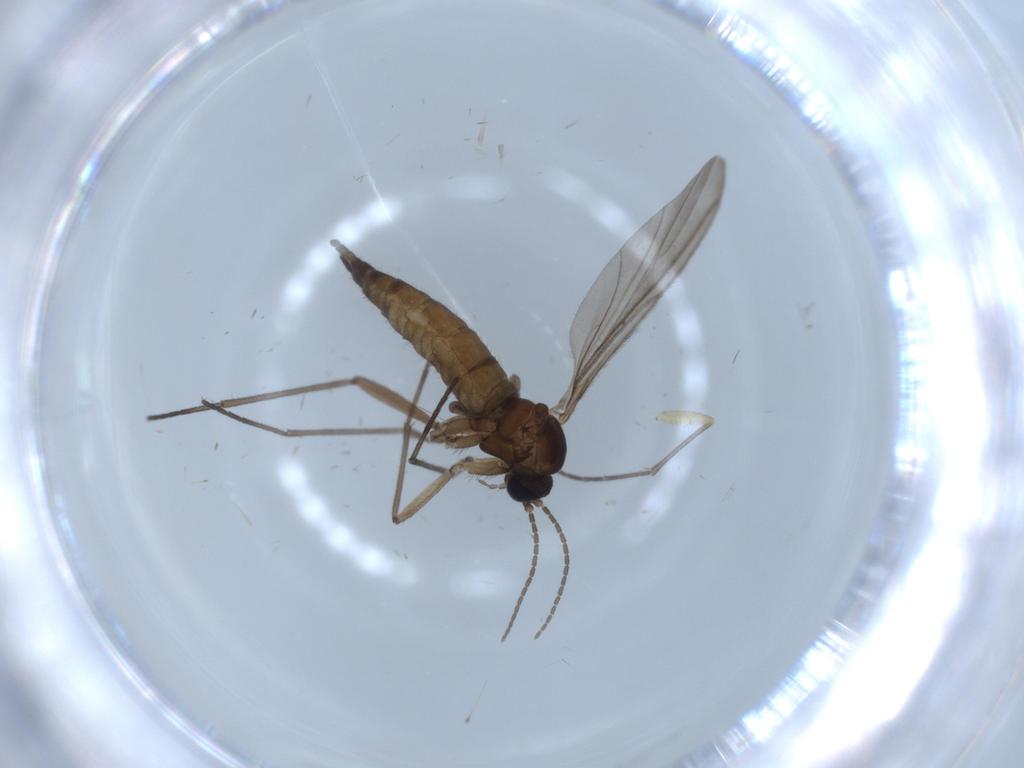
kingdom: Animalia
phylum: Arthropoda
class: Insecta
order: Diptera
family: Sciaridae
